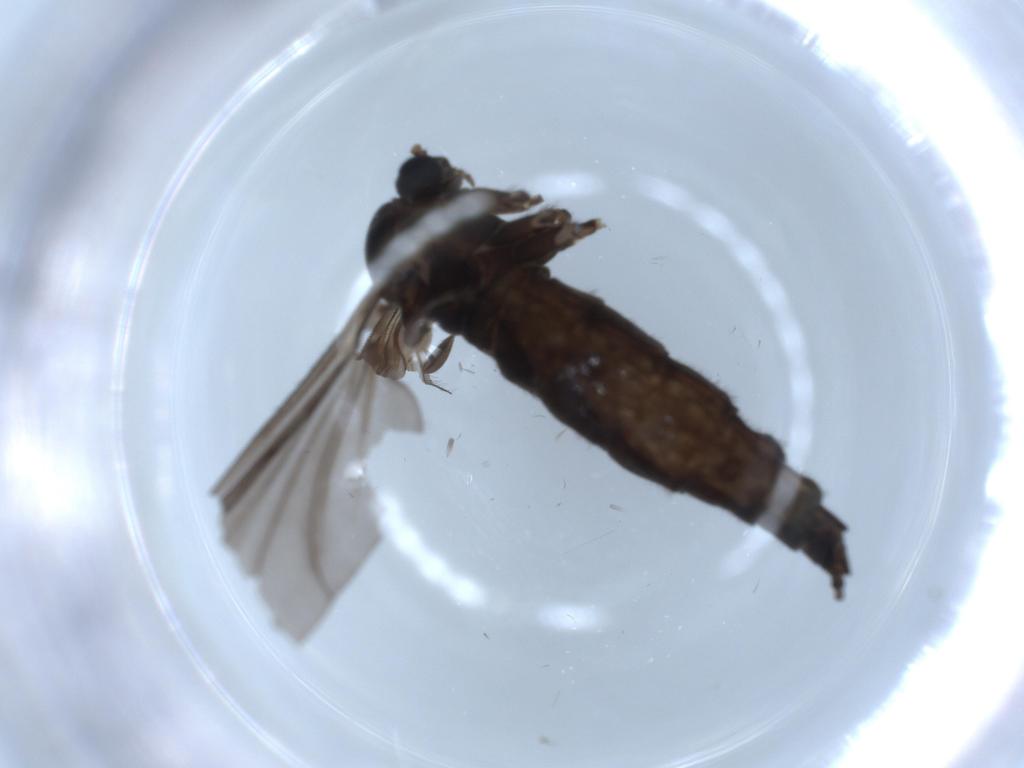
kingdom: Animalia
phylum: Arthropoda
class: Insecta
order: Diptera
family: Sciaridae
